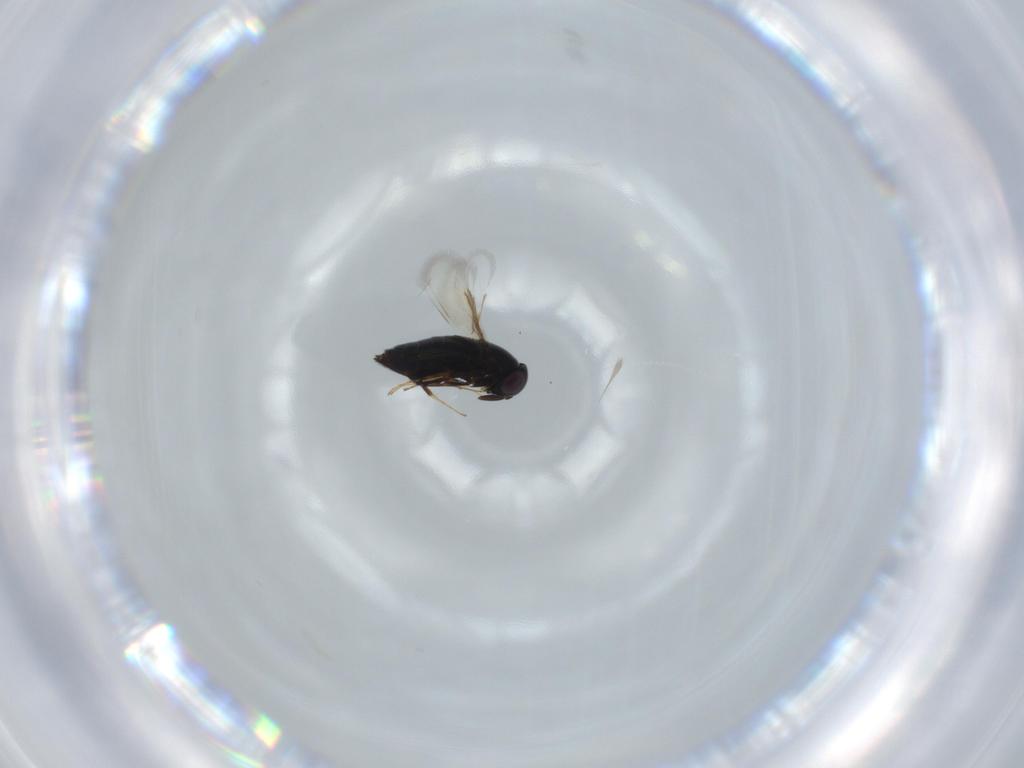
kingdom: Animalia
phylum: Arthropoda
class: Insecta
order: Hymenoptera
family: Signiphoridae
